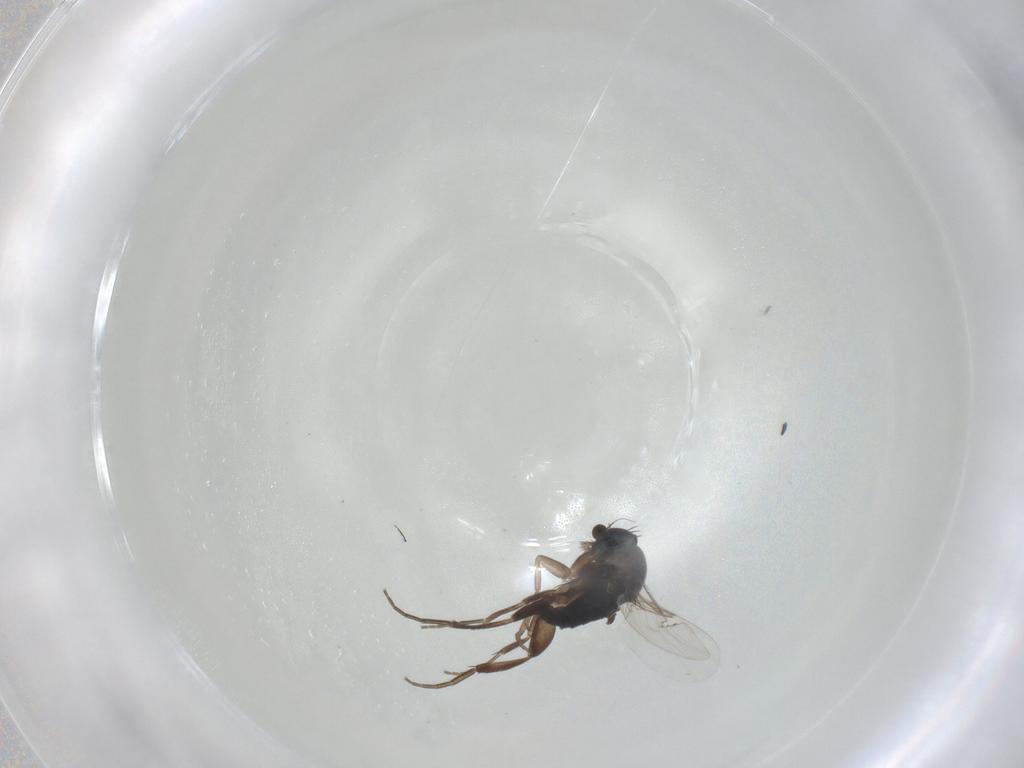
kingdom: Animalia
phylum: Arthropoda
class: Insecta
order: Diptera
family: Phoridae
